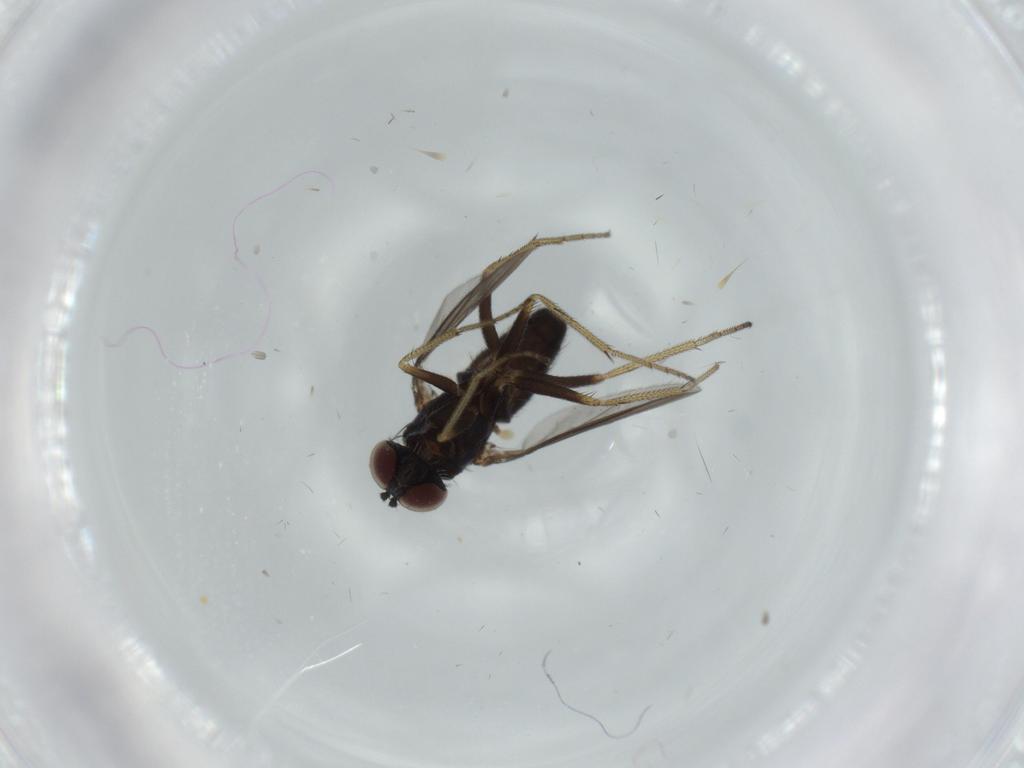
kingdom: Animalia
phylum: Arthropoda
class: Insecta
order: Diptera
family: Dolichopodidae
